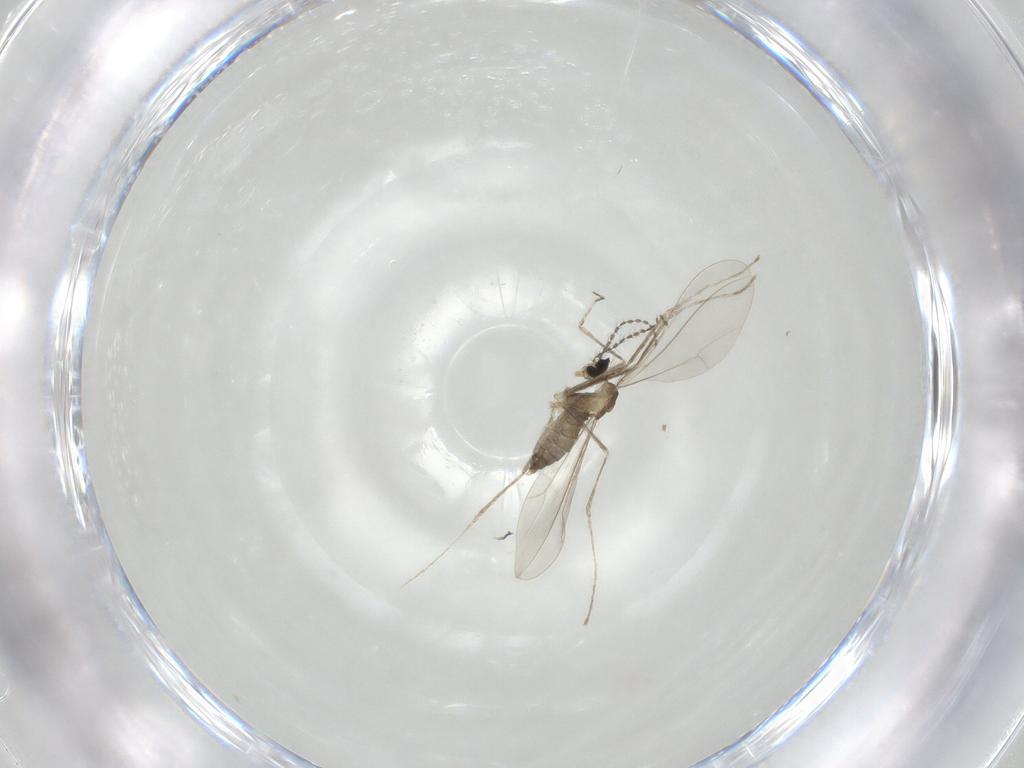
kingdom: Animalia
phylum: Arthropoda
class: Insecta
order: Diptera
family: Cecidomyiidae
